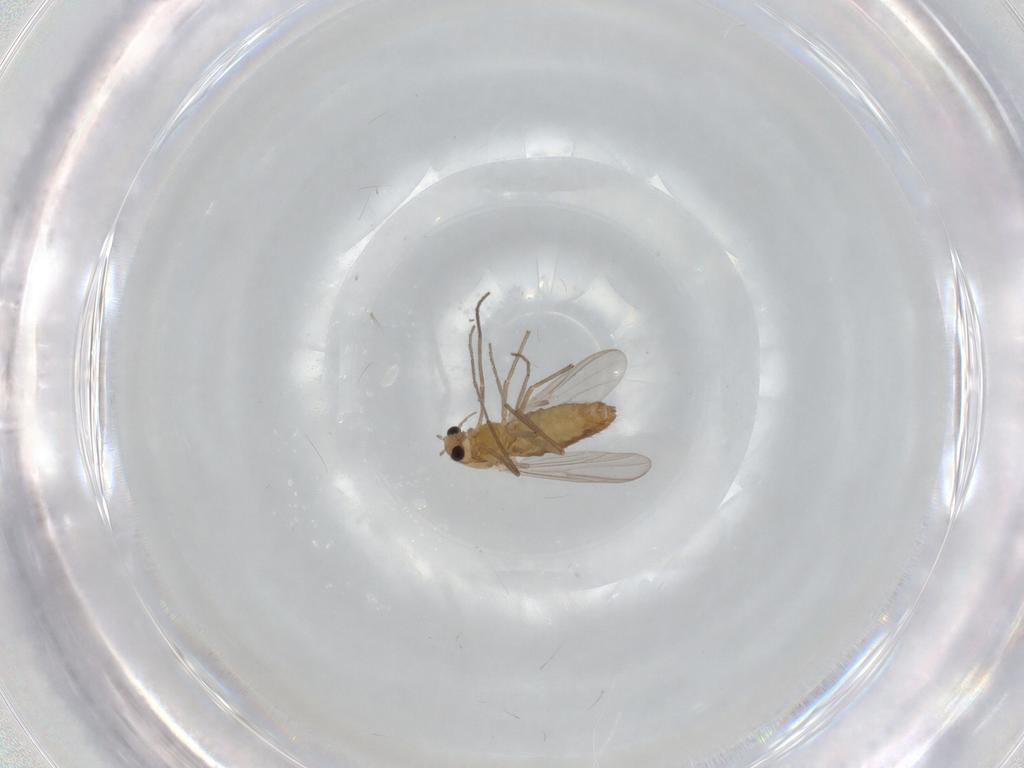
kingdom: Animalia
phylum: Arthropoda
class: Insecta
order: Diptera
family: Chironomidae
